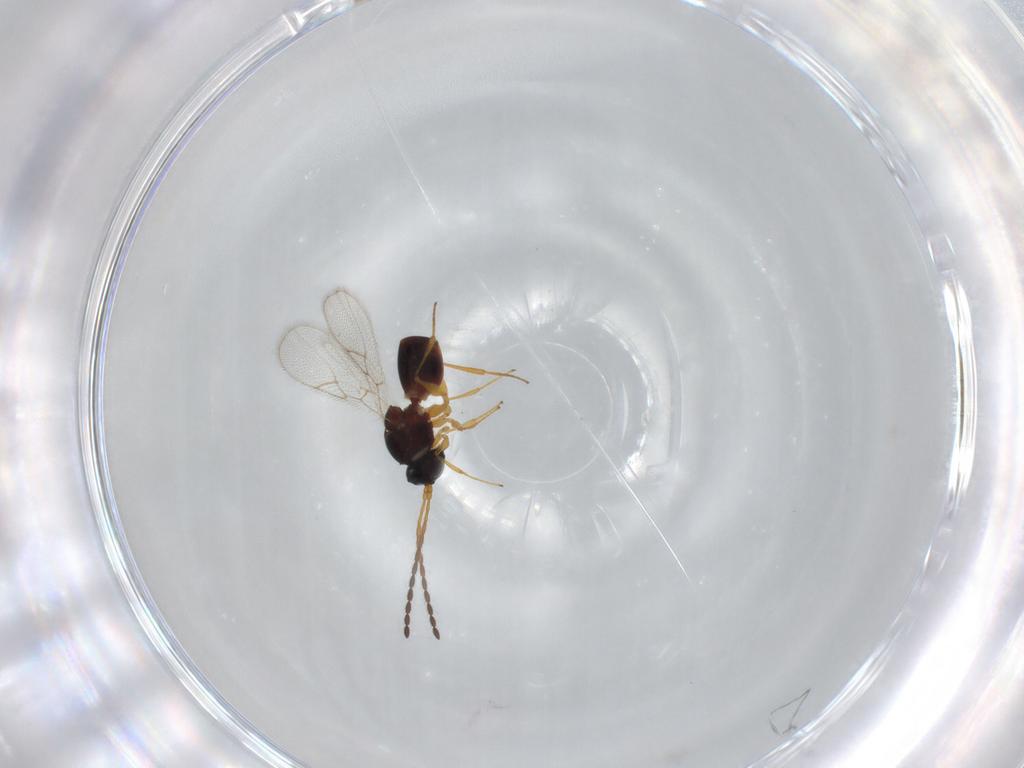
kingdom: Animalia
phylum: Arthropoda
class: Insecta
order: Hymenoptera
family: Figitidae
